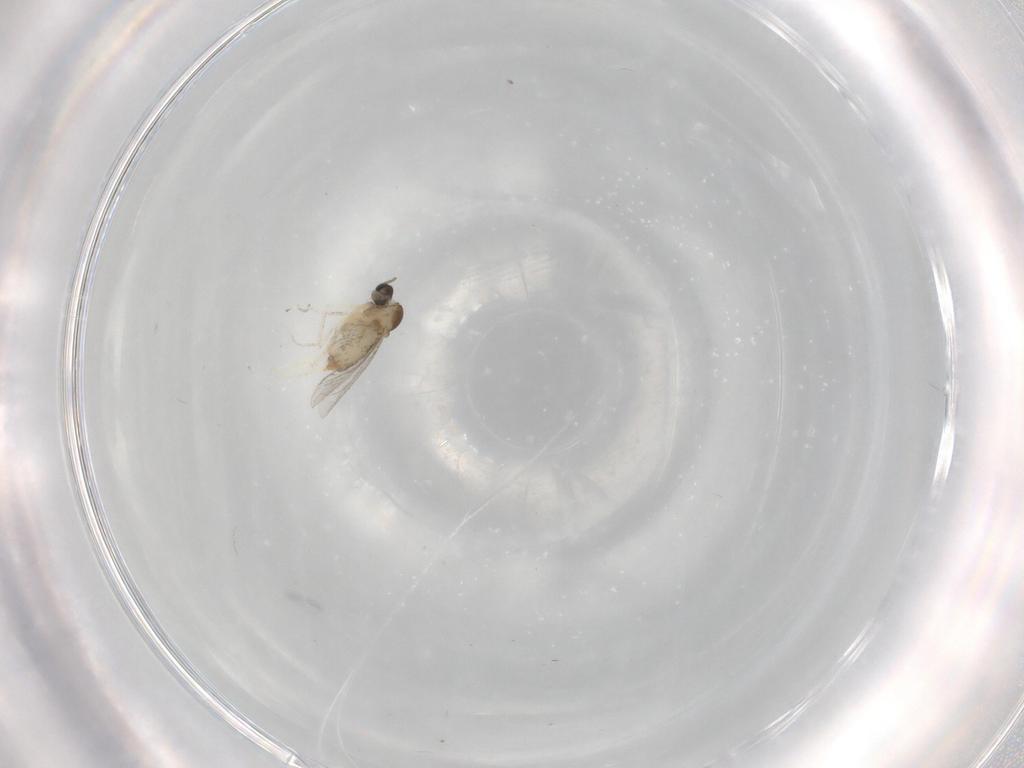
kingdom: Animalia
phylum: Arthropoda
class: Insecta
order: Diptera
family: Cecidomyiidae
